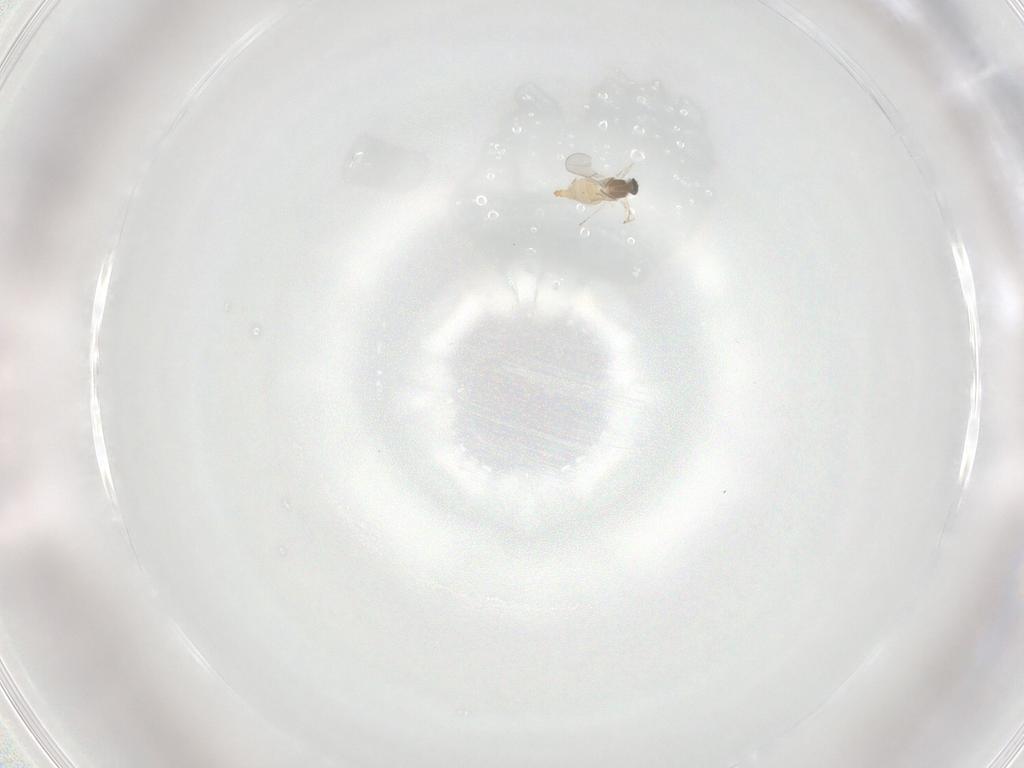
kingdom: Animalia
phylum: Arthropoda
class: Insecta
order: Diptera
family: Cecidomyiidae
